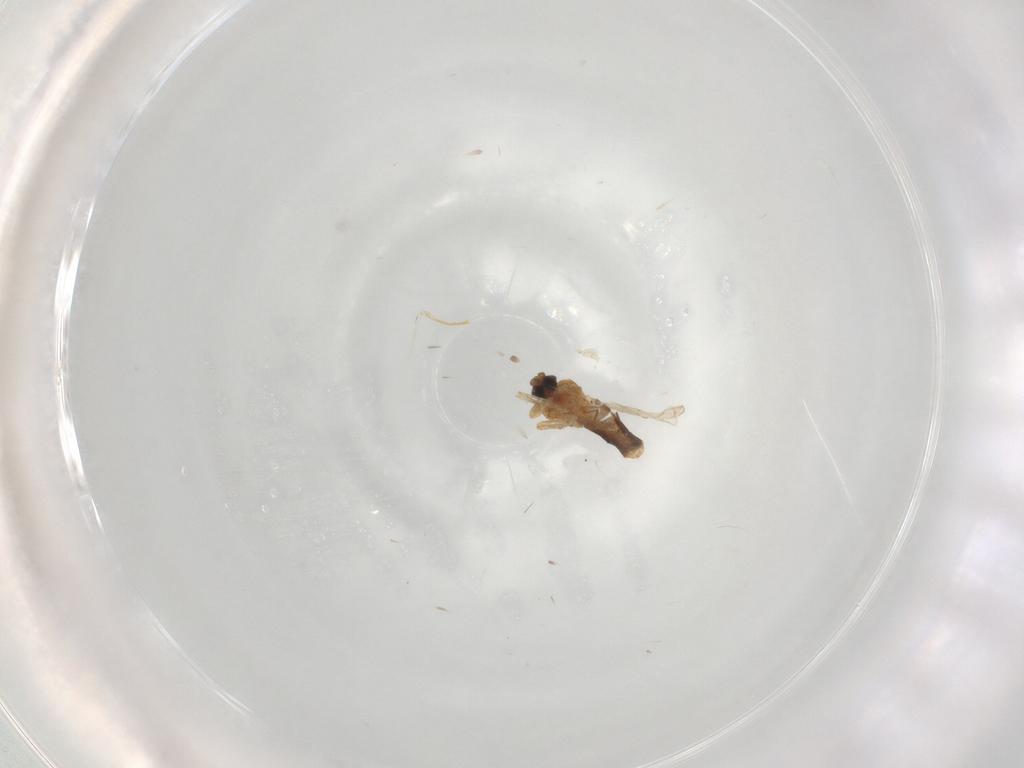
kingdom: Animalia
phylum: Arthropoda
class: Insecta
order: Diptera
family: Ceratopogonidae
